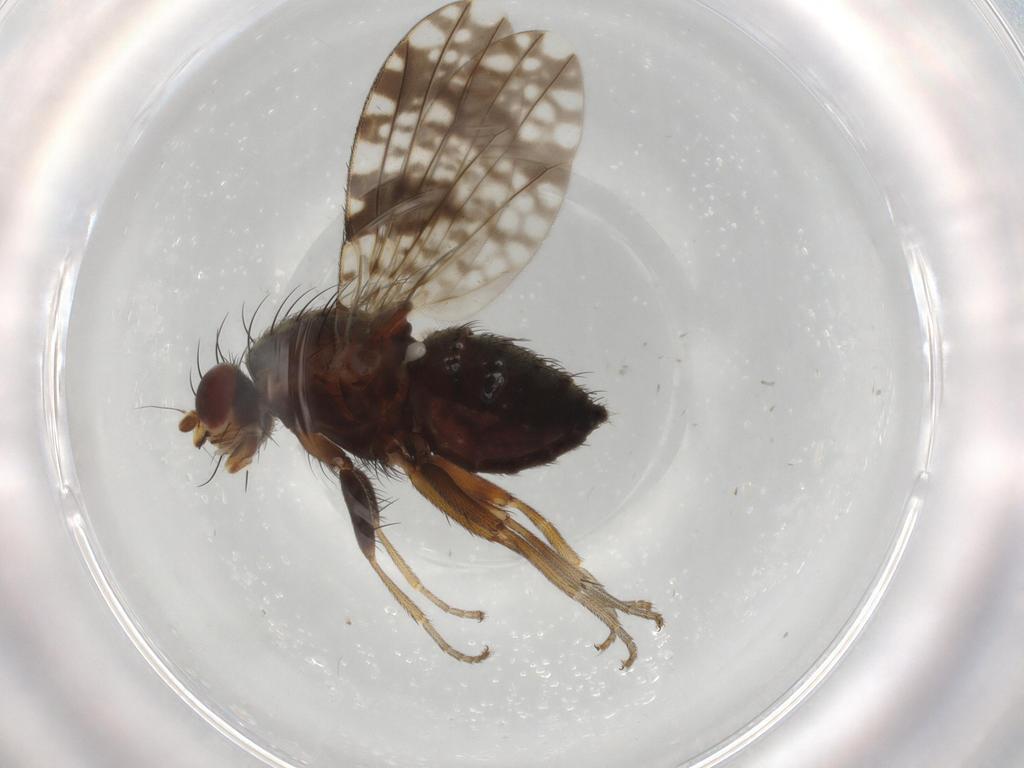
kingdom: Animalia
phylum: Arthropoda
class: Insecta
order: Diptera
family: Tephritidae
